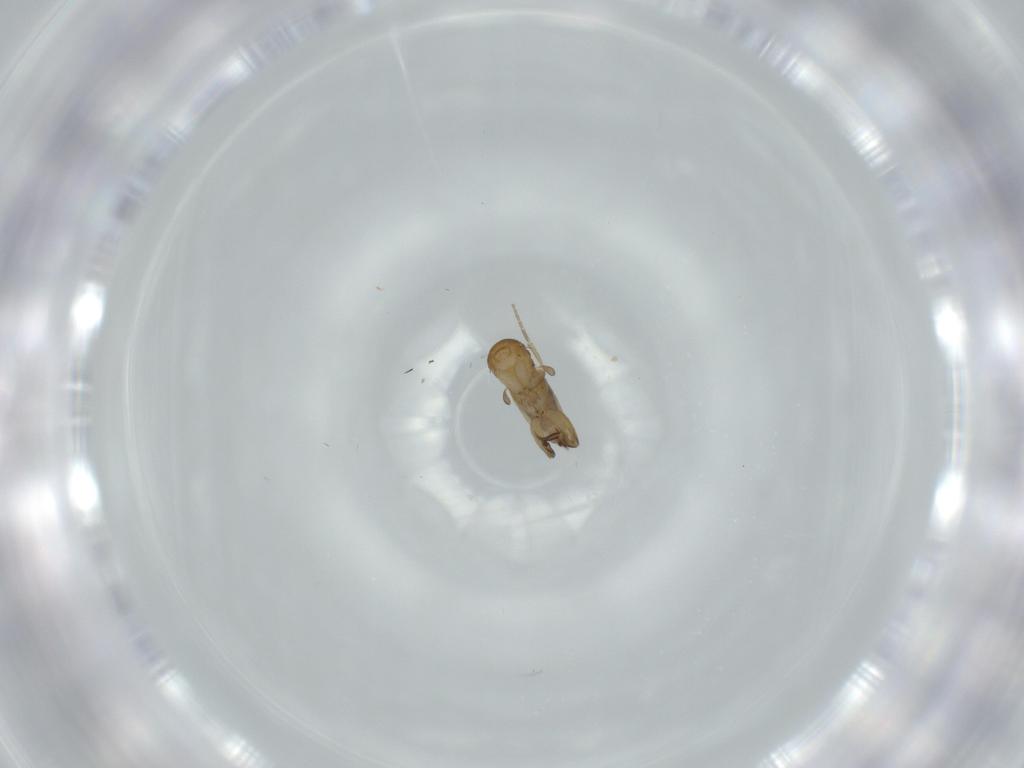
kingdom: Animalia
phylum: Arthropoda
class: Insecta
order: Diptera
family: Phoridae
